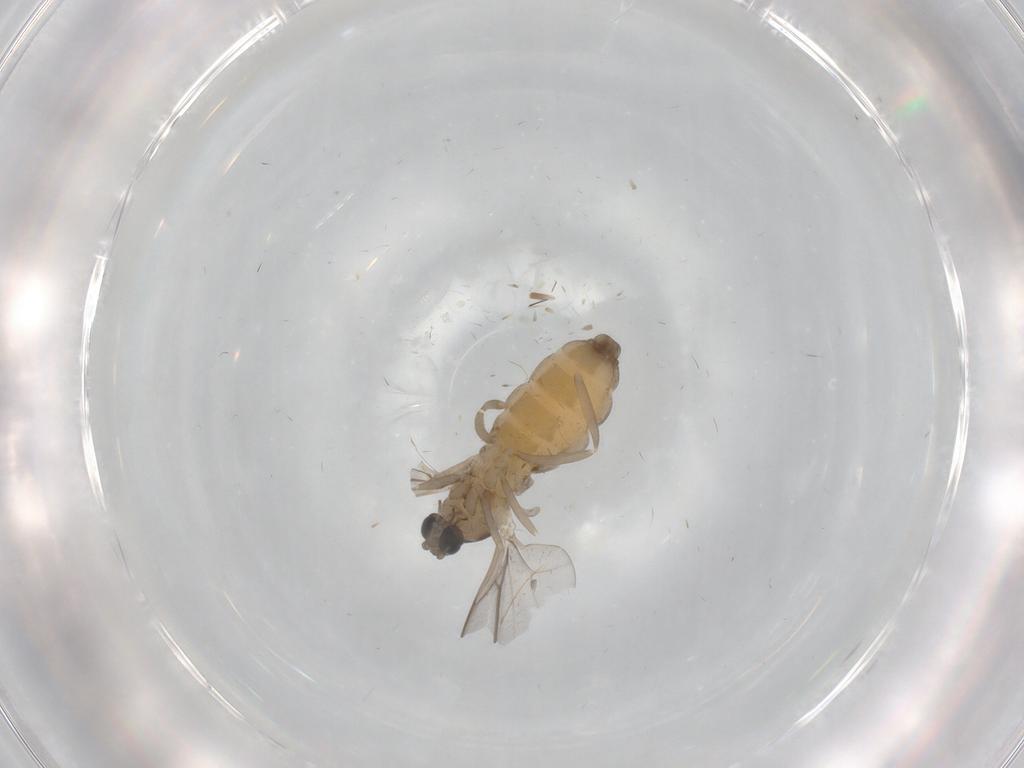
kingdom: Animalia
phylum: Arthropoda
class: Insecta
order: Diptera
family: Cecidomyiidae
